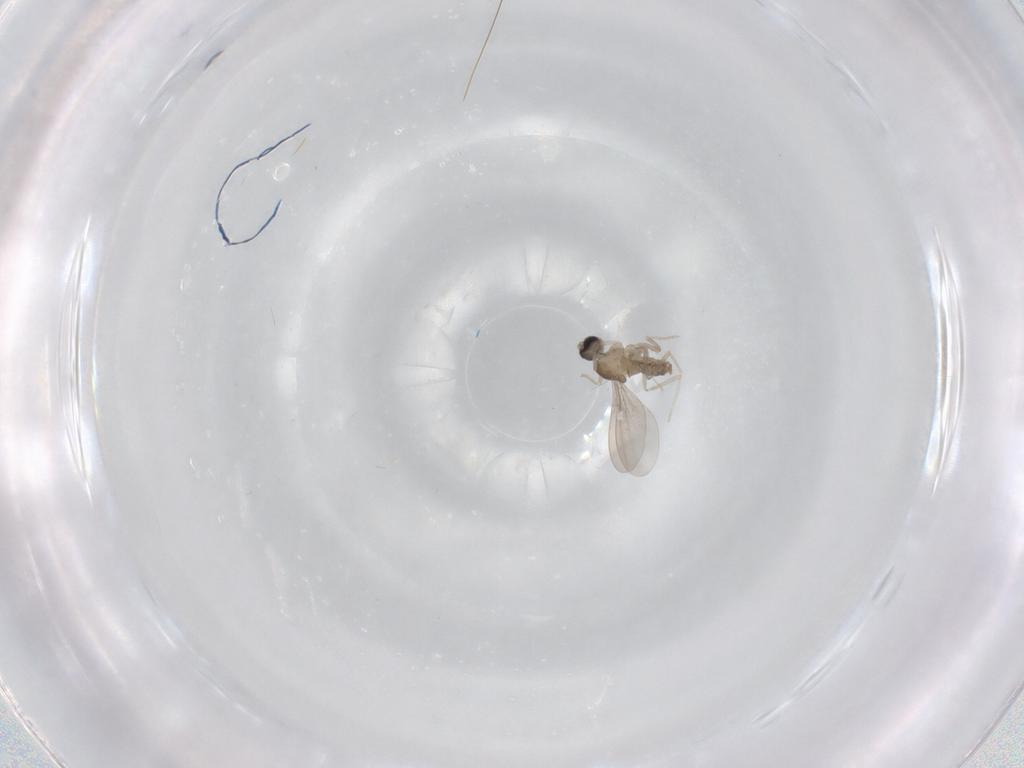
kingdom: Animalia
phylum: Arthropoda
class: Insecta
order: Diptera
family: Cecidomyiidae
